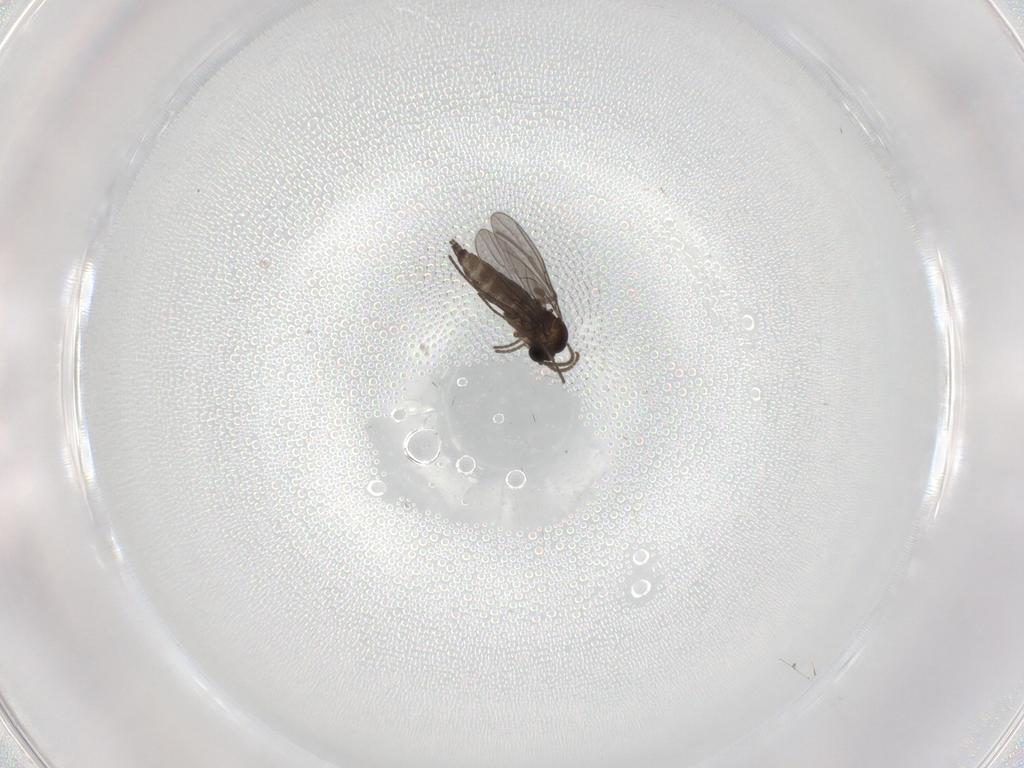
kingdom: Animalia
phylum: Arthropoda
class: Insecta
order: Diptera
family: Sciaridae
